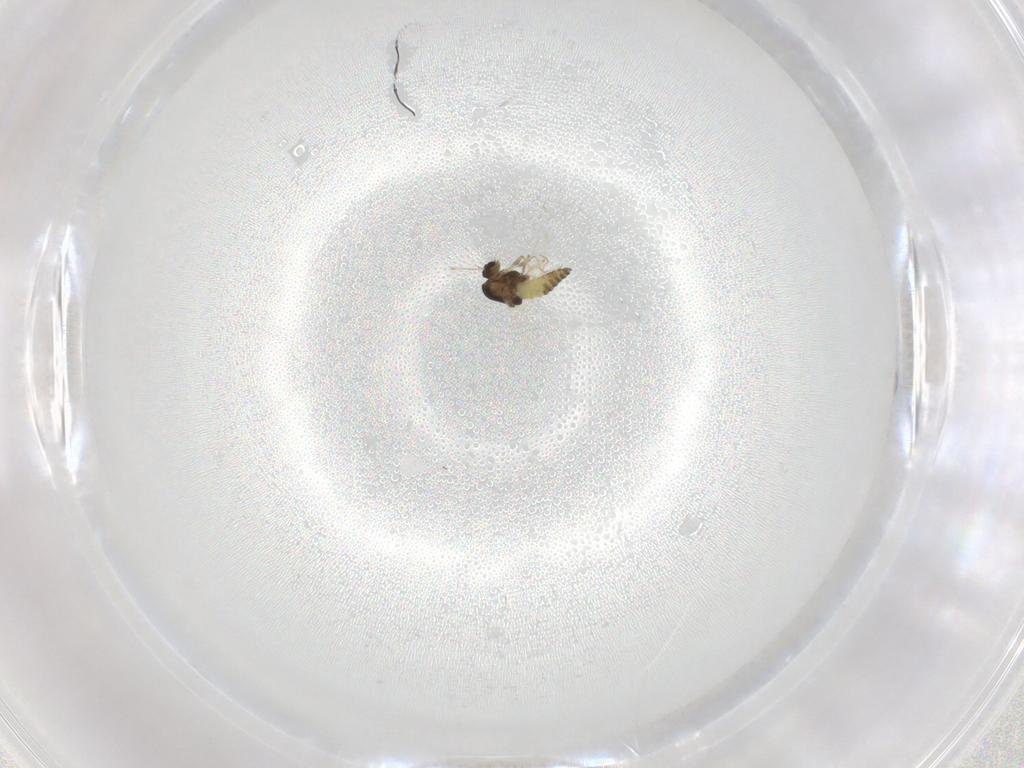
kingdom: Animalia
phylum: Arthropoda
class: Insecta
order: Diptera
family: Chironomidae
